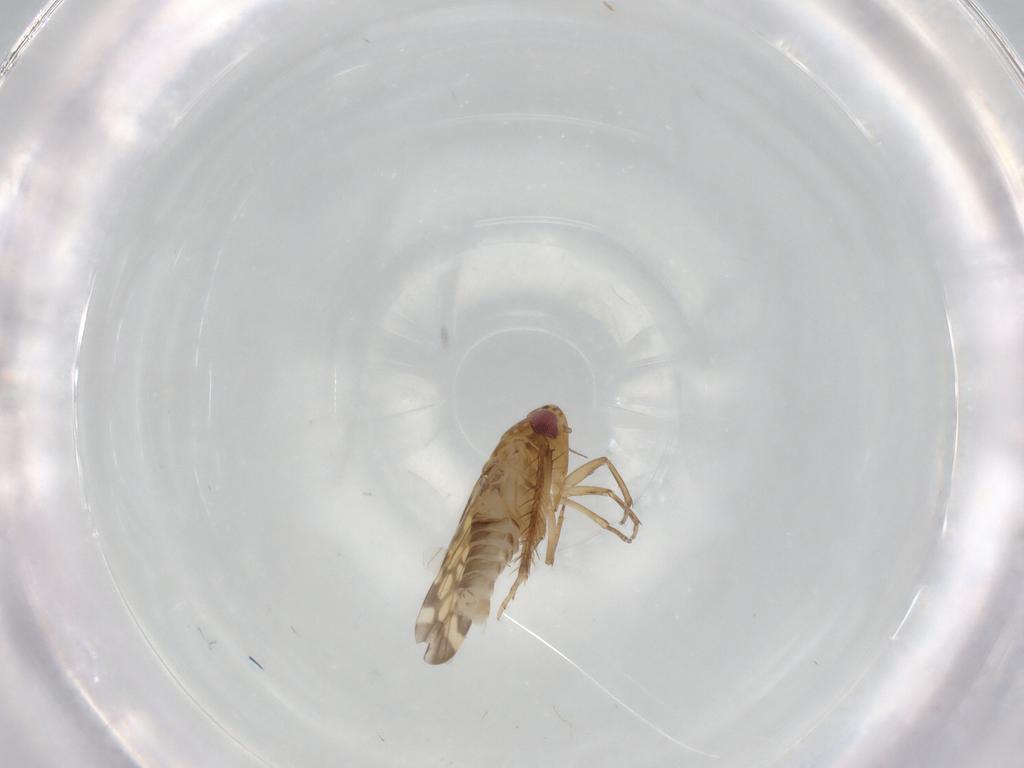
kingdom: Animalia
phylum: Arthropoda
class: Insecta
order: Hemiptera
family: Cicadellidae
